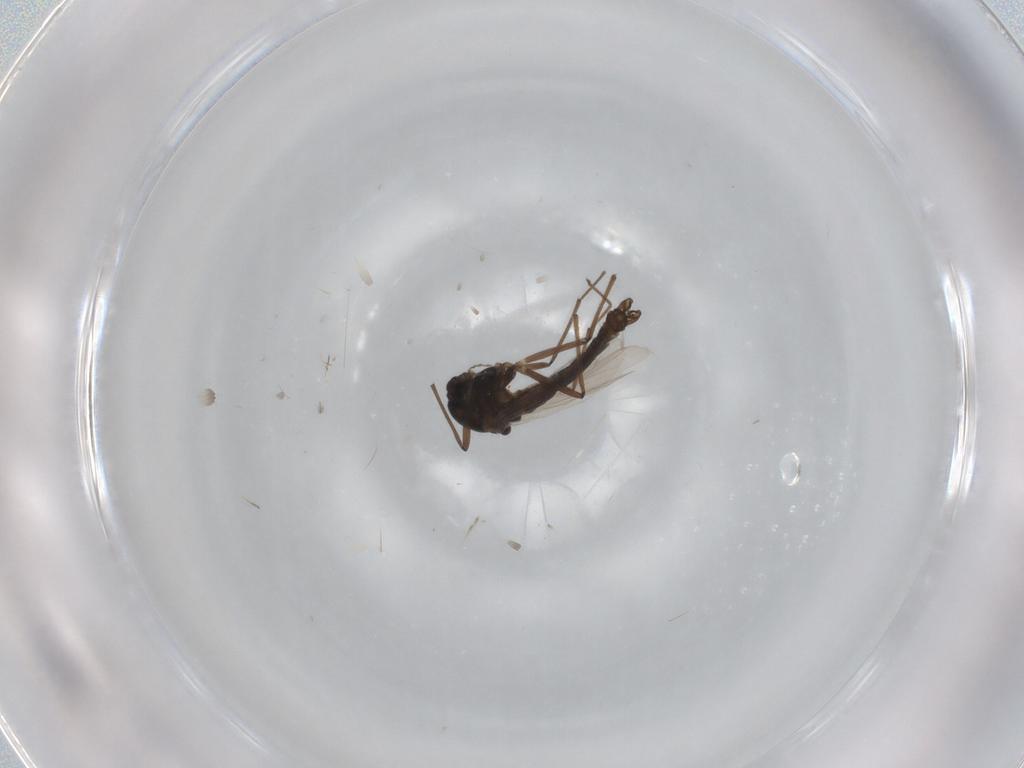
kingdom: Animalia
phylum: Arthropoda
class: Insecta
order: Diptera
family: Chironomidae
